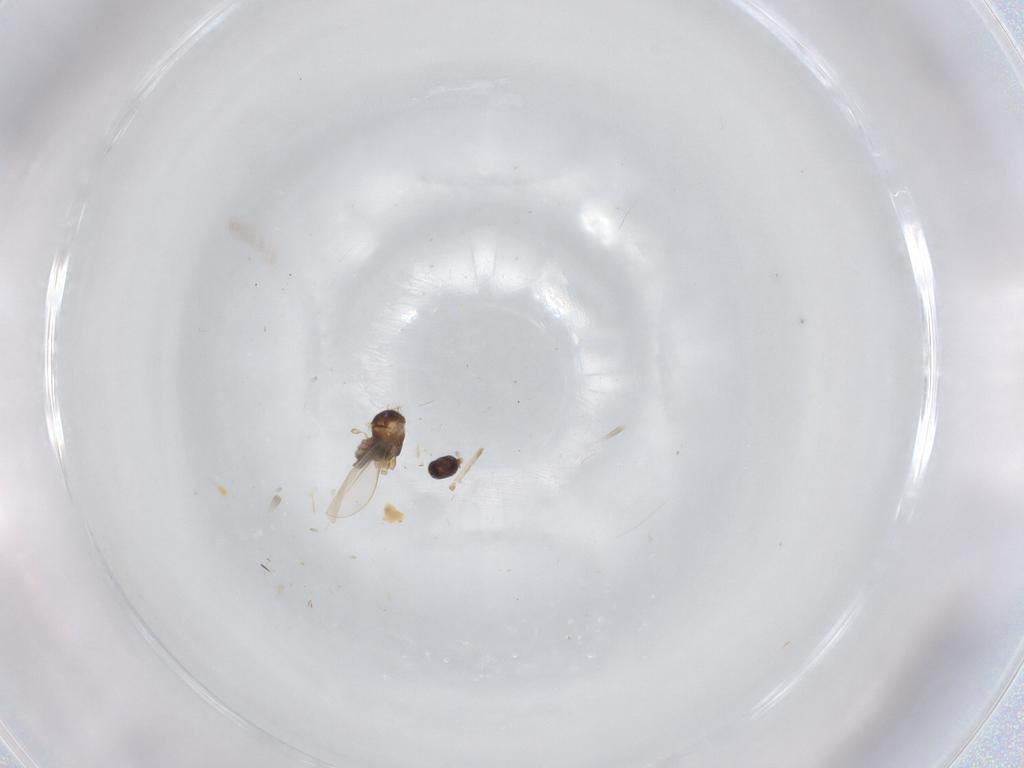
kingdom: Animalia
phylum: Arthropoda
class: Insecta
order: Diptera
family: Cecidomyiidae
